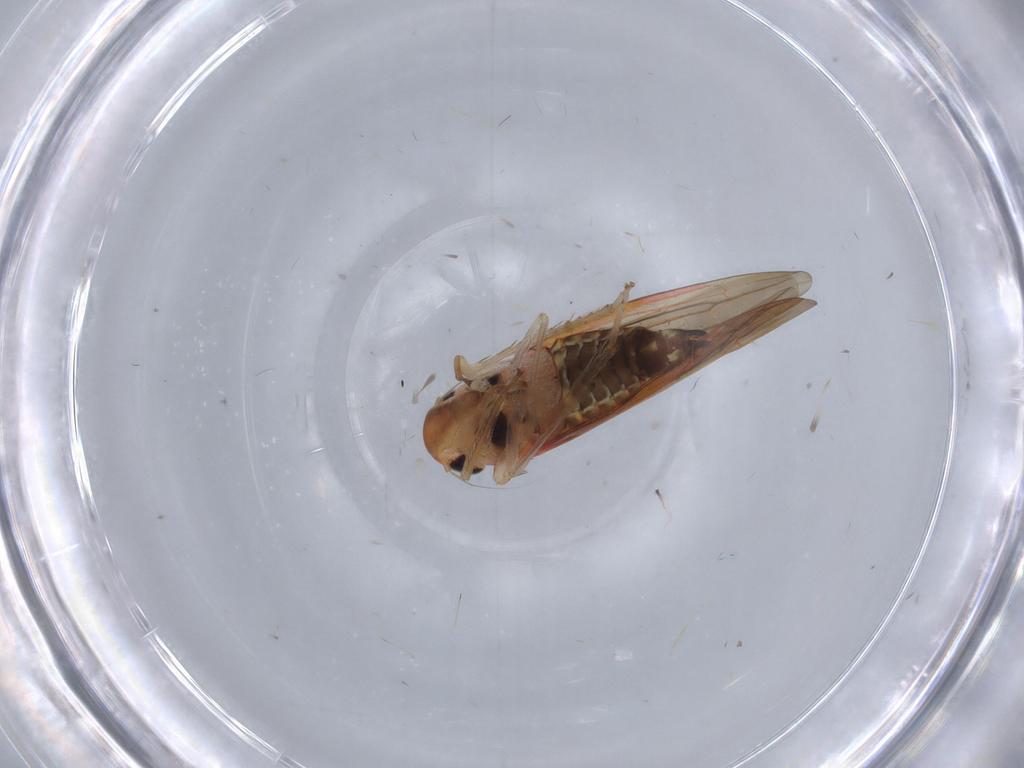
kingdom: Animalia
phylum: Arthropoda
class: Insecta
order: Hemiptera
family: Cicadellidae
